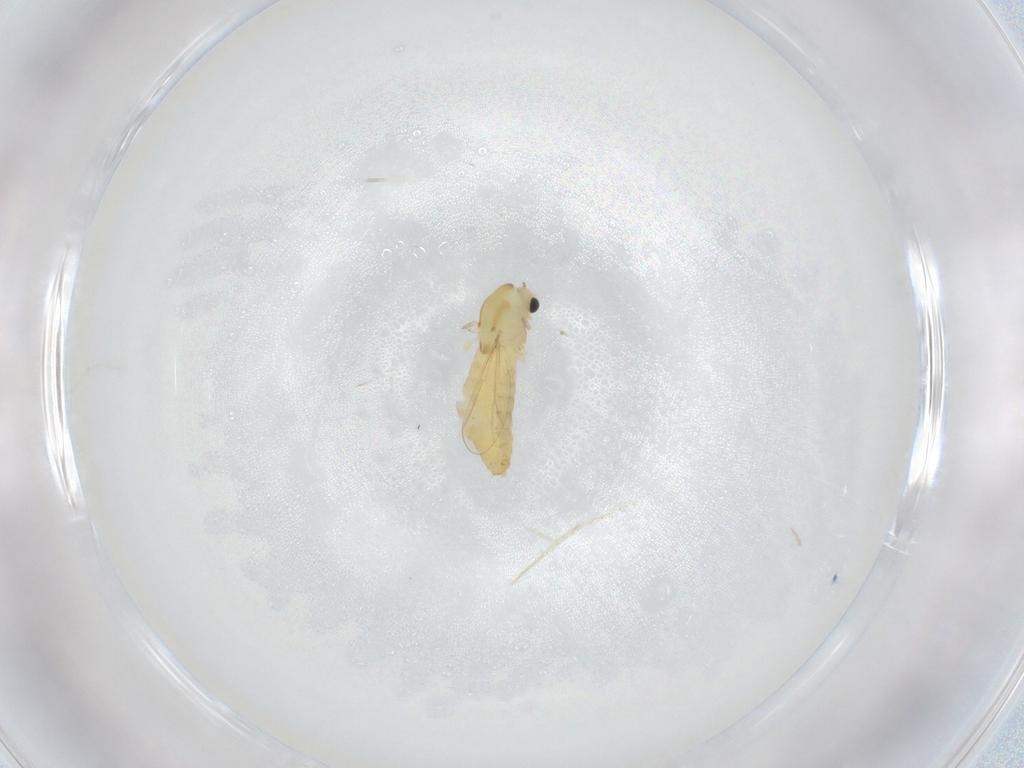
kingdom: Animalia
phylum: Arthropoda
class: Insecta
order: Diptera
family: Chironomidae
